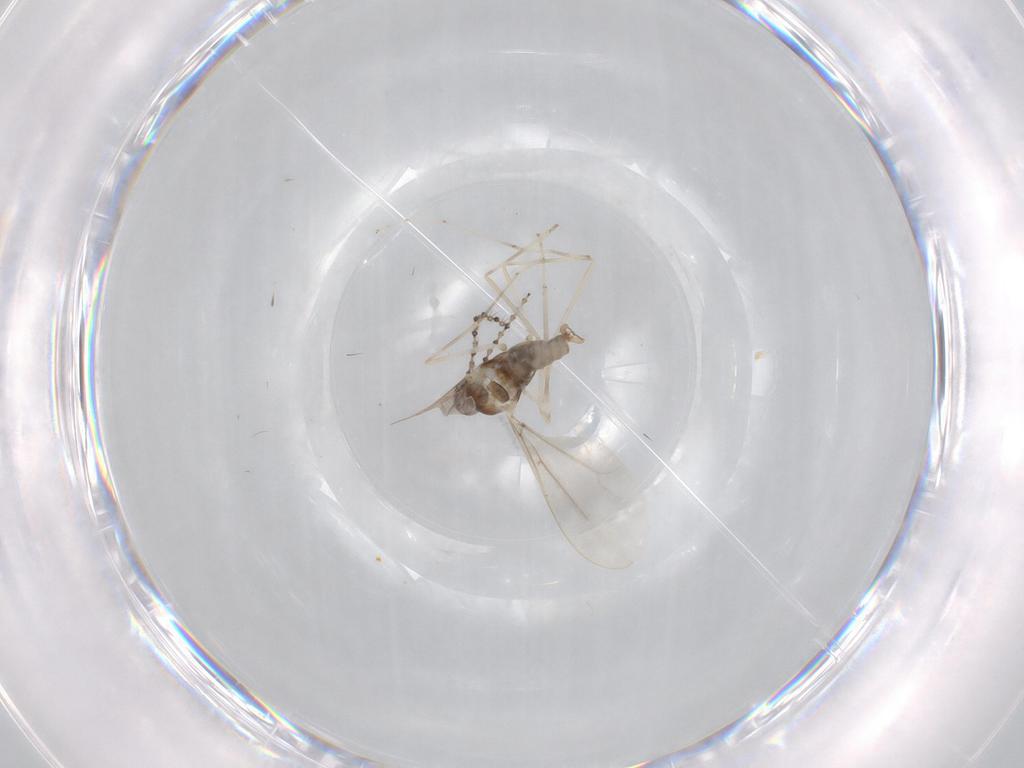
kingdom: Animalia
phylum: Arthropoda
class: Insecta
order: Diptera
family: Cecidomyiidae
